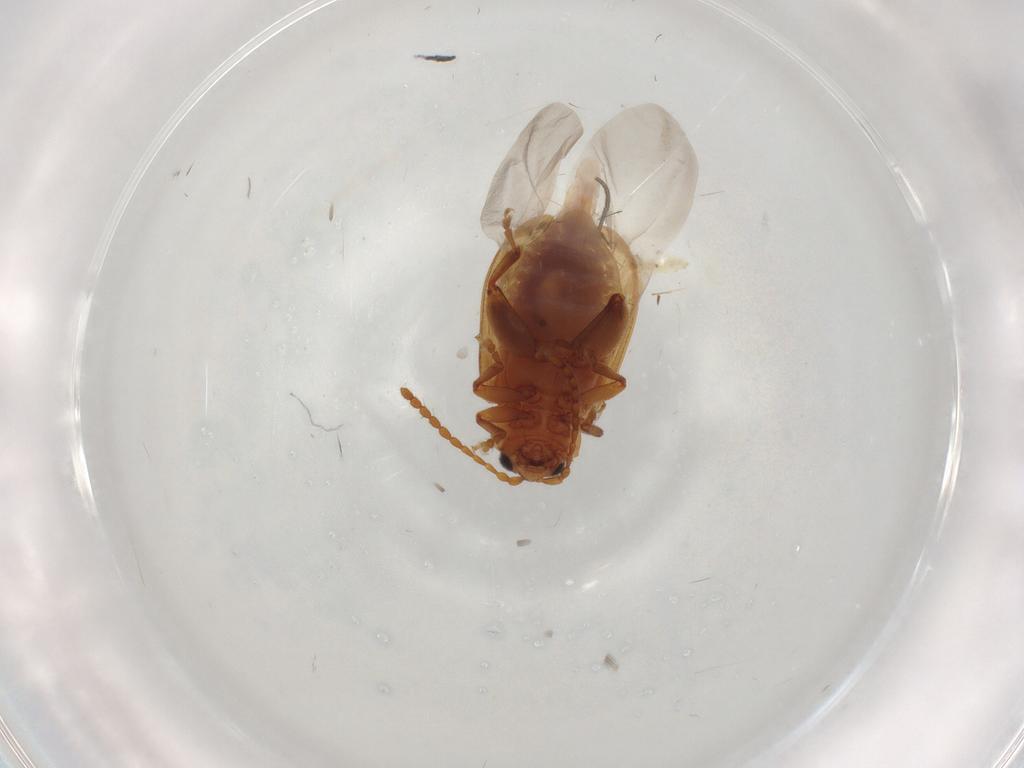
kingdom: Animalia
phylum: Arthropoda
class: Insecta
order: Coleoptera
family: Chrysomelidae
